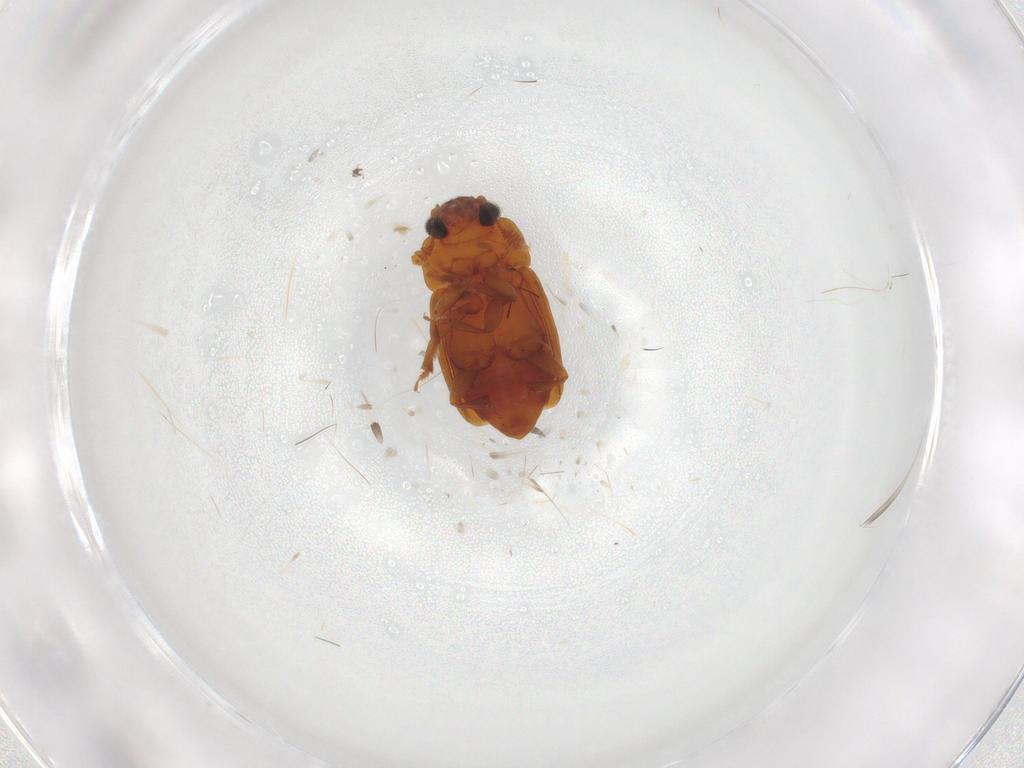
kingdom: Animalia
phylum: Arthropoda
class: Insecta
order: Coleoptera
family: Nitidulidae
